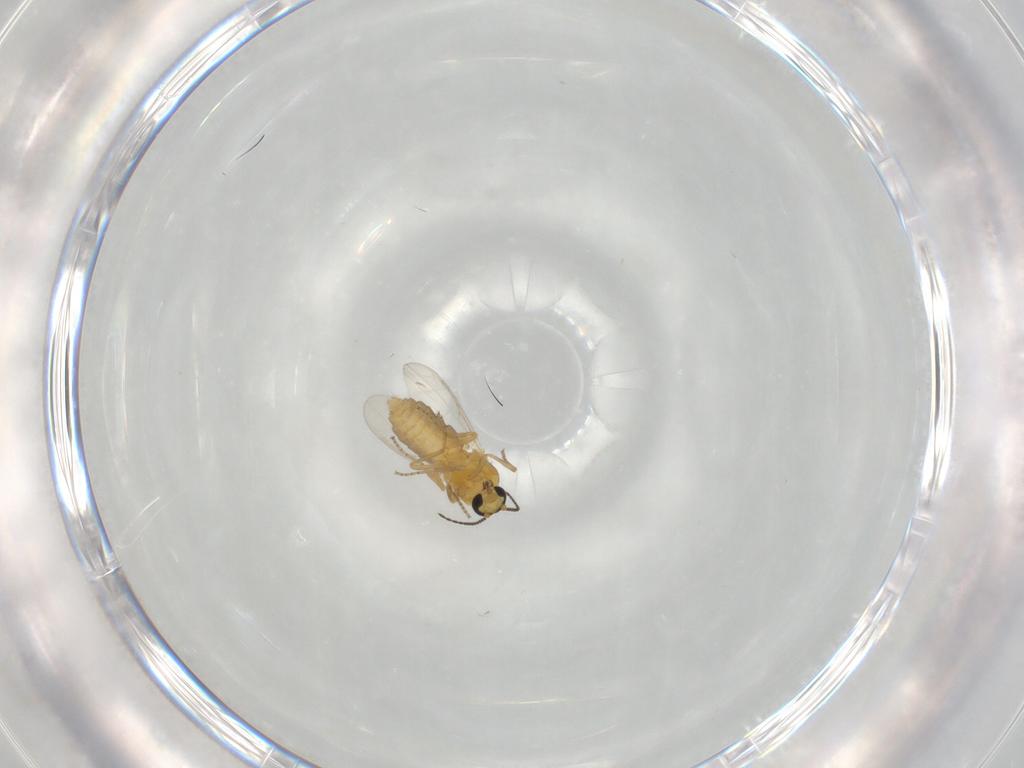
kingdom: Animalia
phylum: Arthropoda
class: Insecta
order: Diptera
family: Ceratopogonidae
